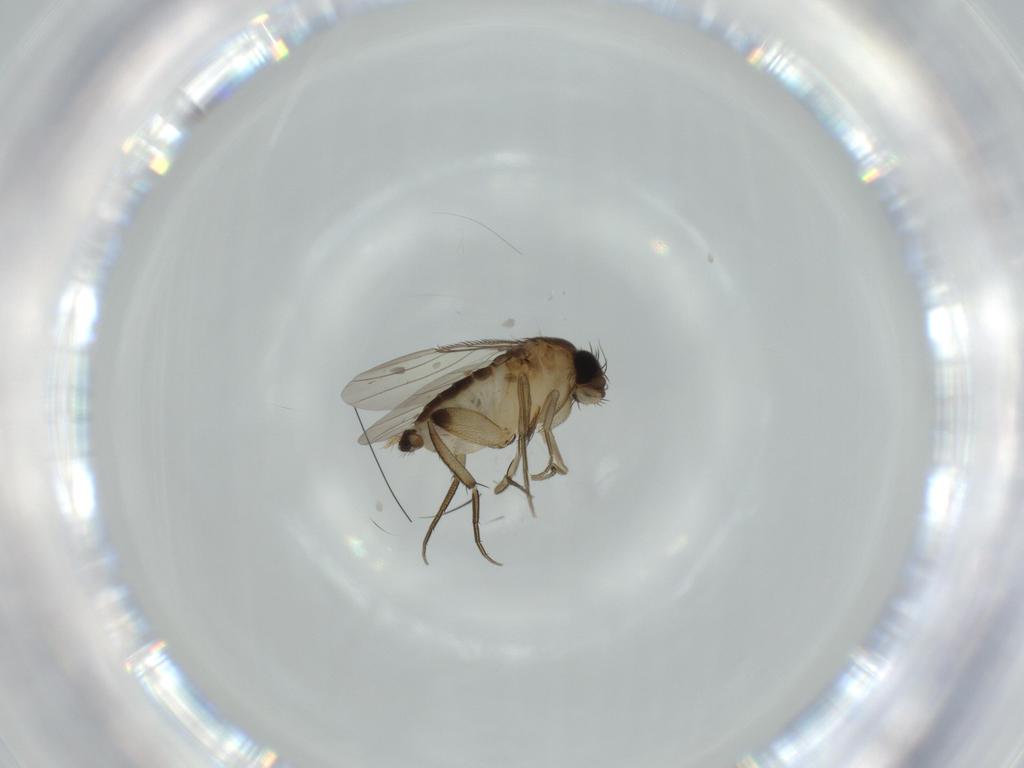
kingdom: Animalia
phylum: Arthropoda
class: Insecta
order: Diptera
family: Phoridae
